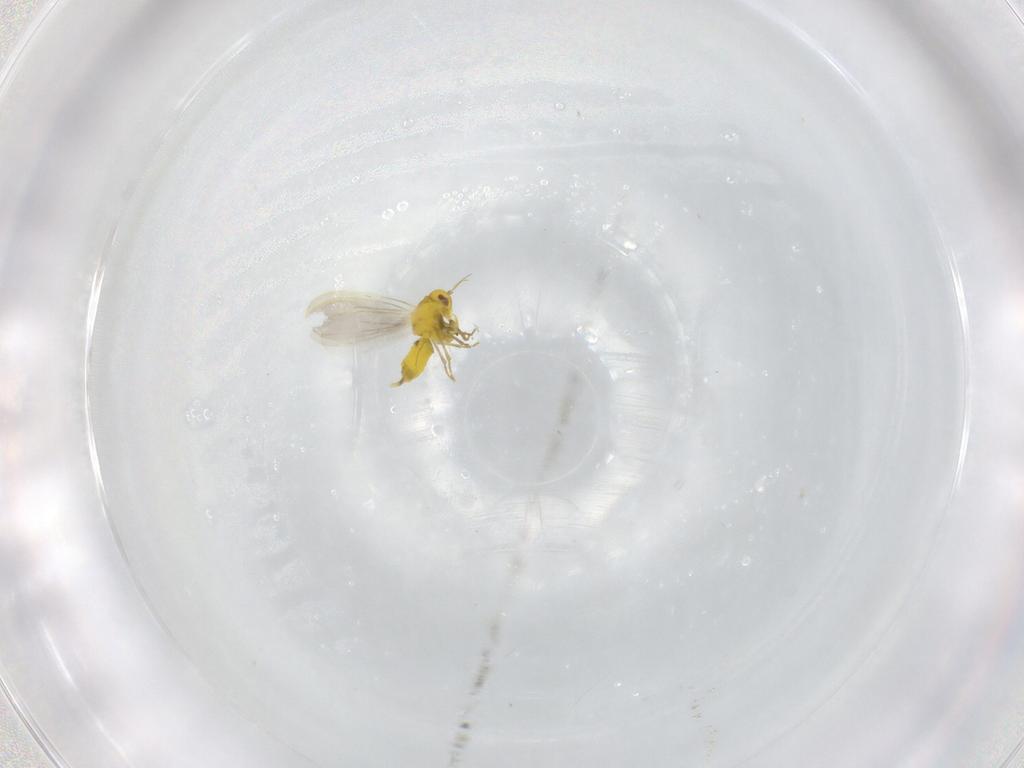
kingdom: Animalia
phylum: Arthropoda
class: Insecta
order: Hemiptera
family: Aleyrodidae
